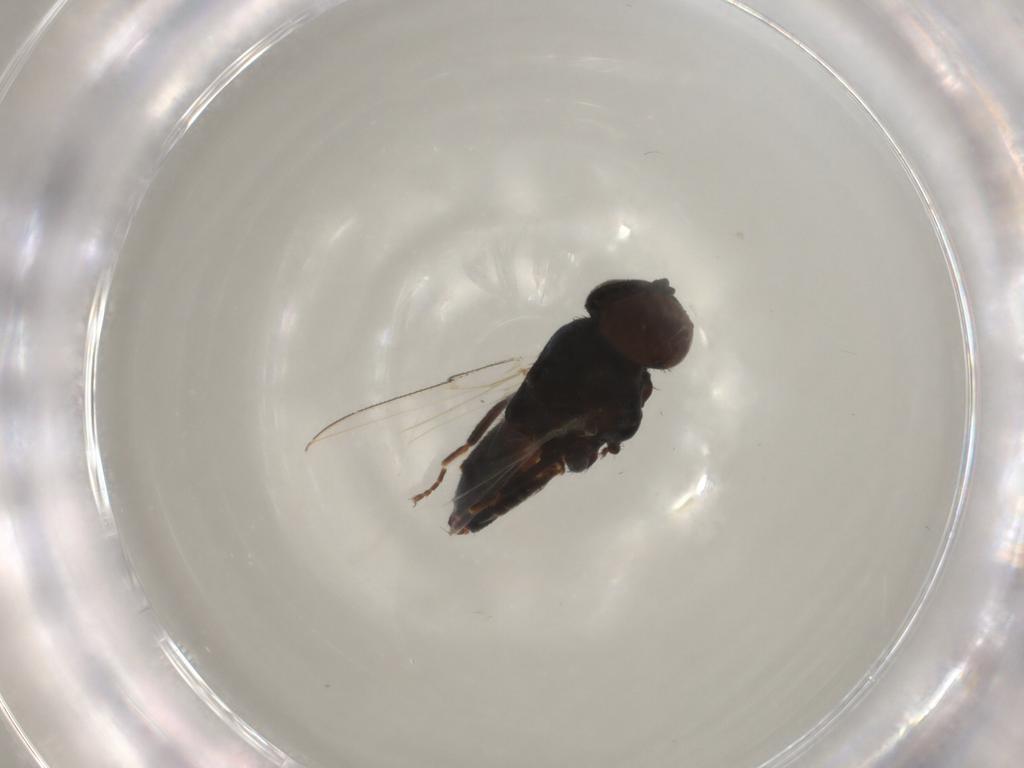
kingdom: Animalia
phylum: Arthropoda
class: Insecta
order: Diptera
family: Milichiidae
